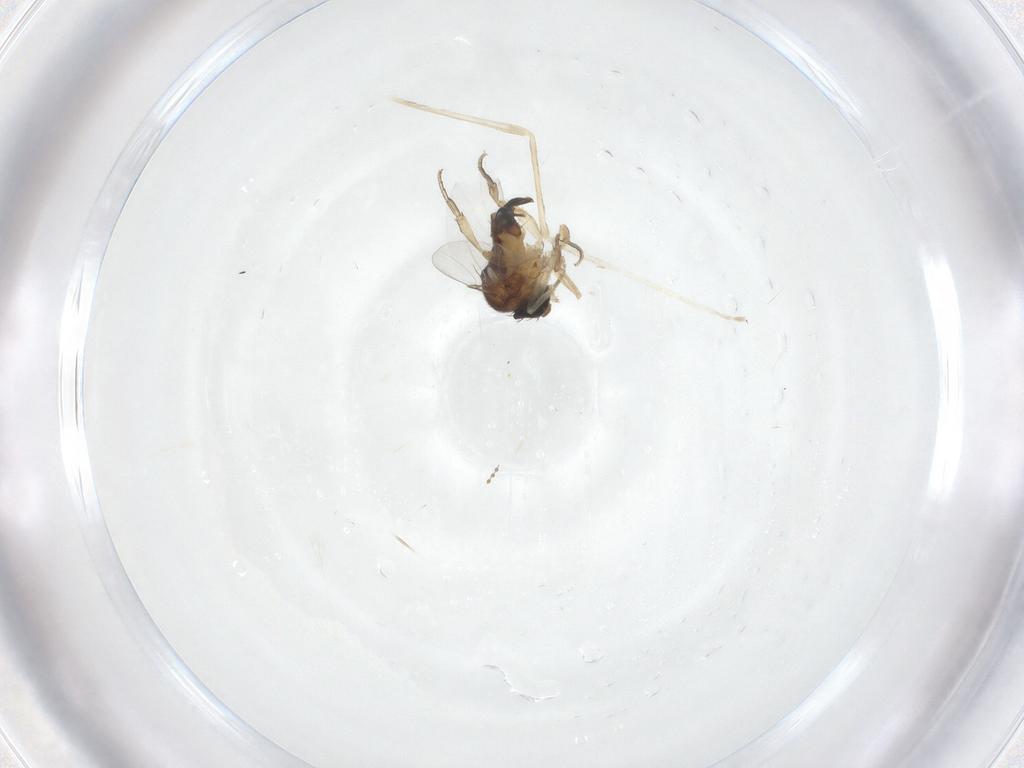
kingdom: Animalia
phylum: Arthropoda
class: Insecta
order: Diptera
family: Phoridae
